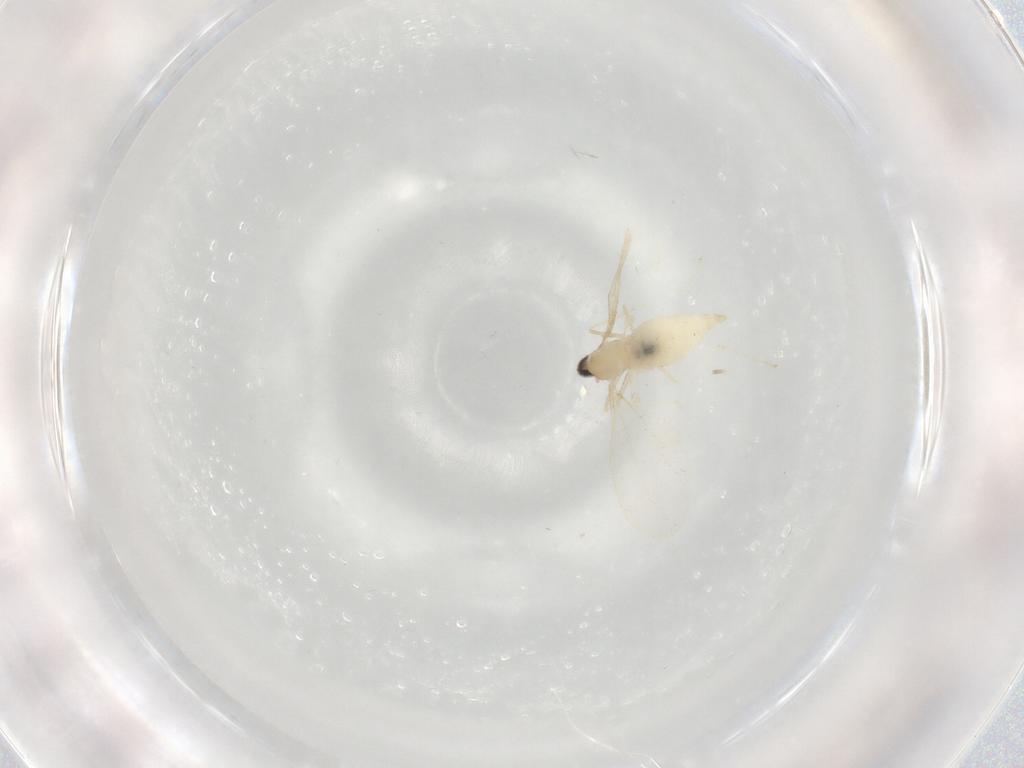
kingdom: Animalia
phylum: Arthropoda
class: Insecta
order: Diptera
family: Cecidomyiidae
